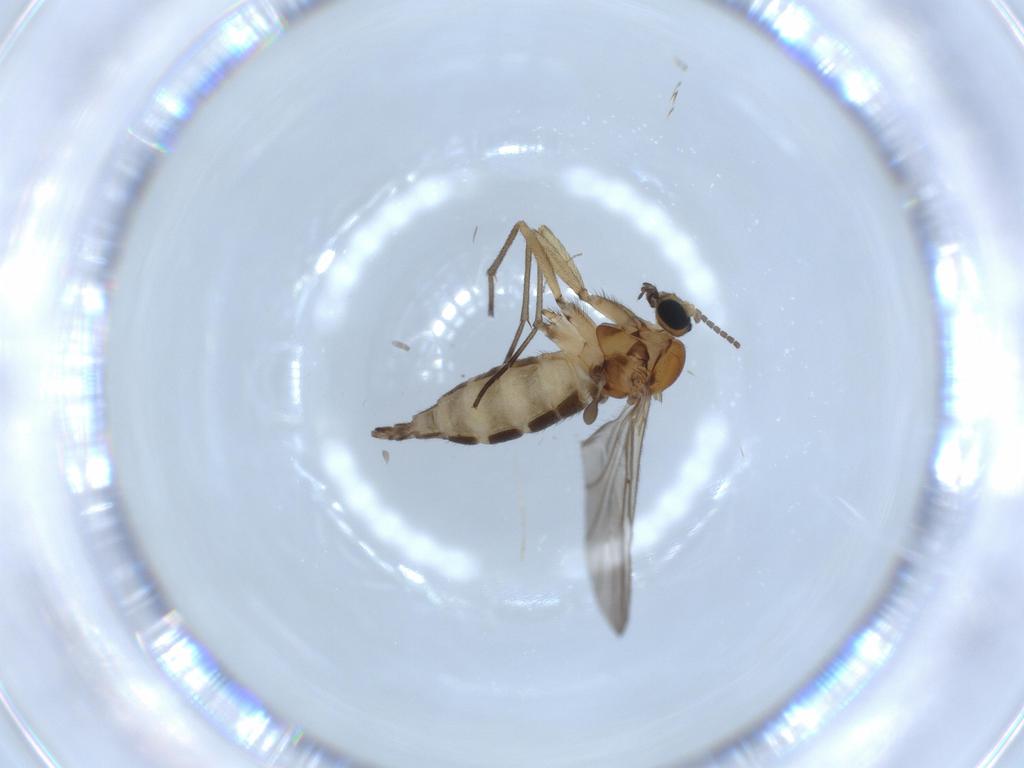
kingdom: Animalia
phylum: Arthropoda
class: Insecta
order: Diptera
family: Sciaridae
